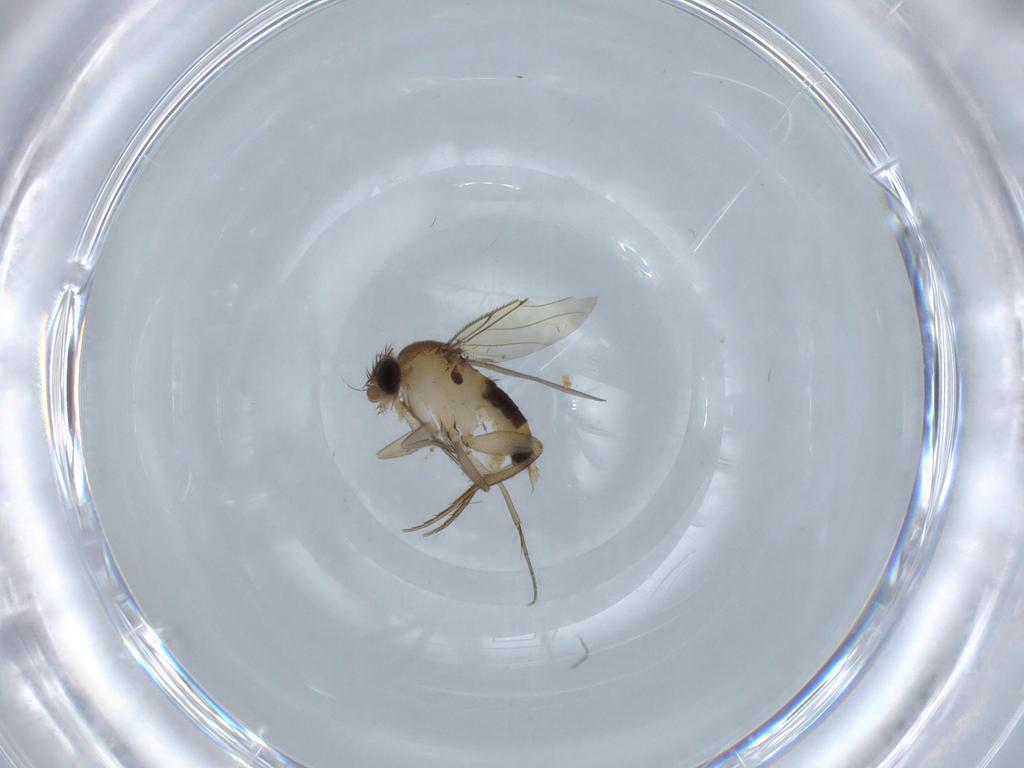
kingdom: Animalia
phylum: Arthropoda
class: Insecta
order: Diptera
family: Phoridae
